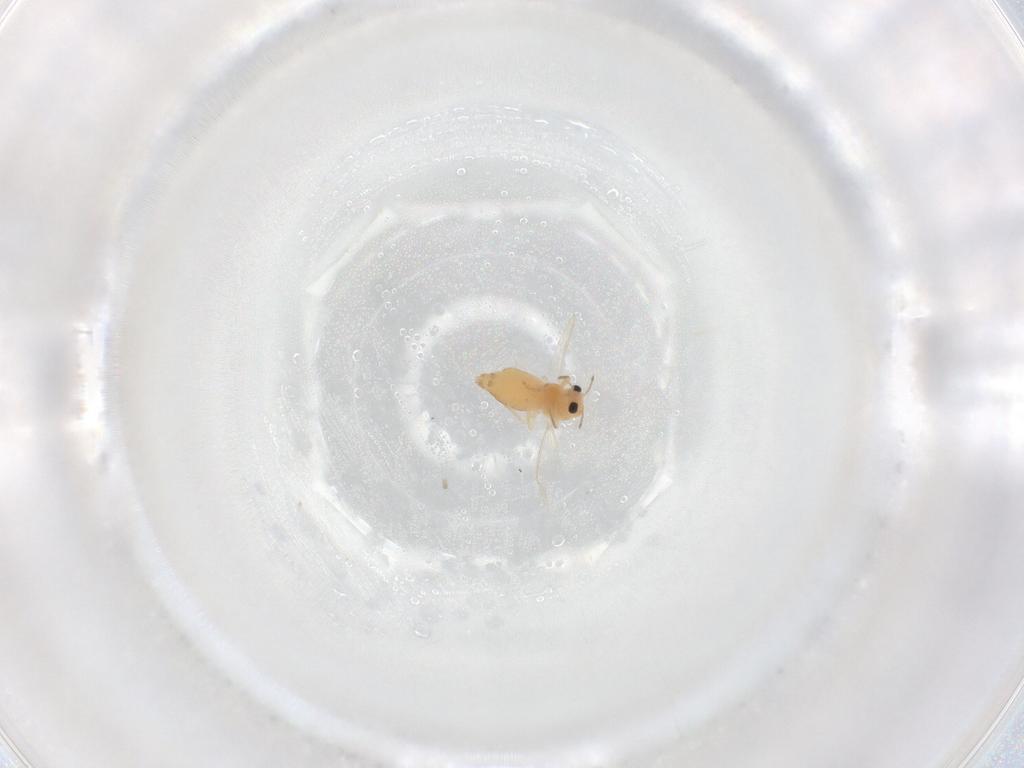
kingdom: Animalia
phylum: Arthropoda
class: Insecta
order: Diptera
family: Chironomidae
